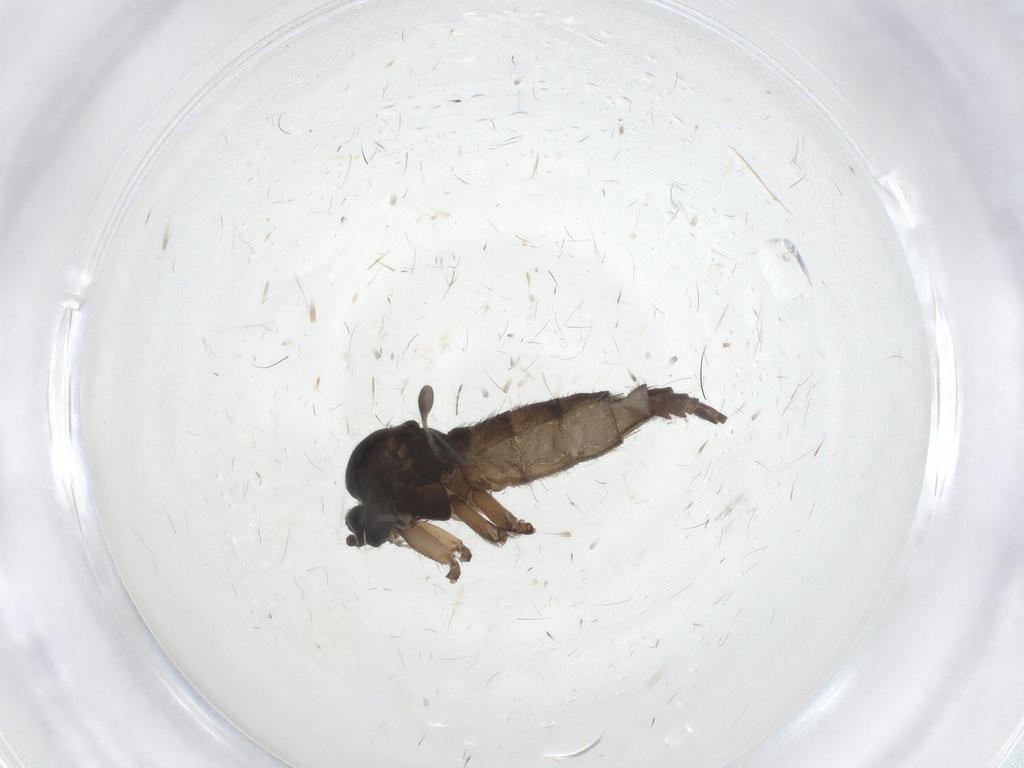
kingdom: Animalia
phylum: Arthropoda
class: Insecta
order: Diptera
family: Sciaridae
